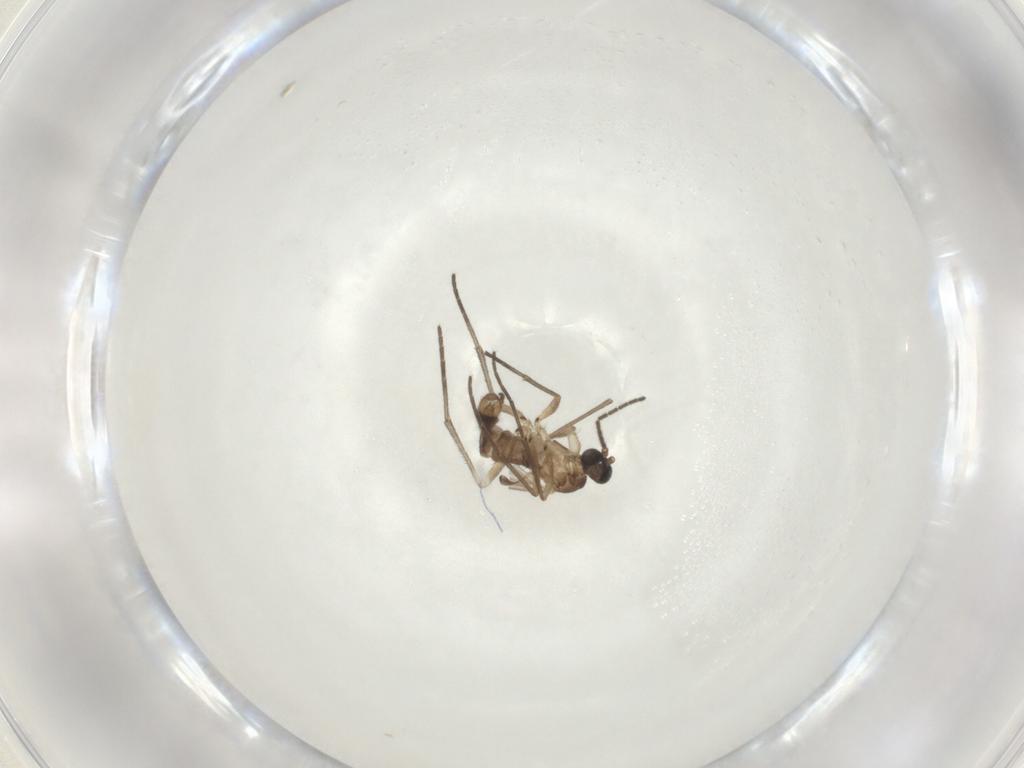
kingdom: Animalia
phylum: Arthropoda
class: Insecta
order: Diptera
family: Sciaridae
